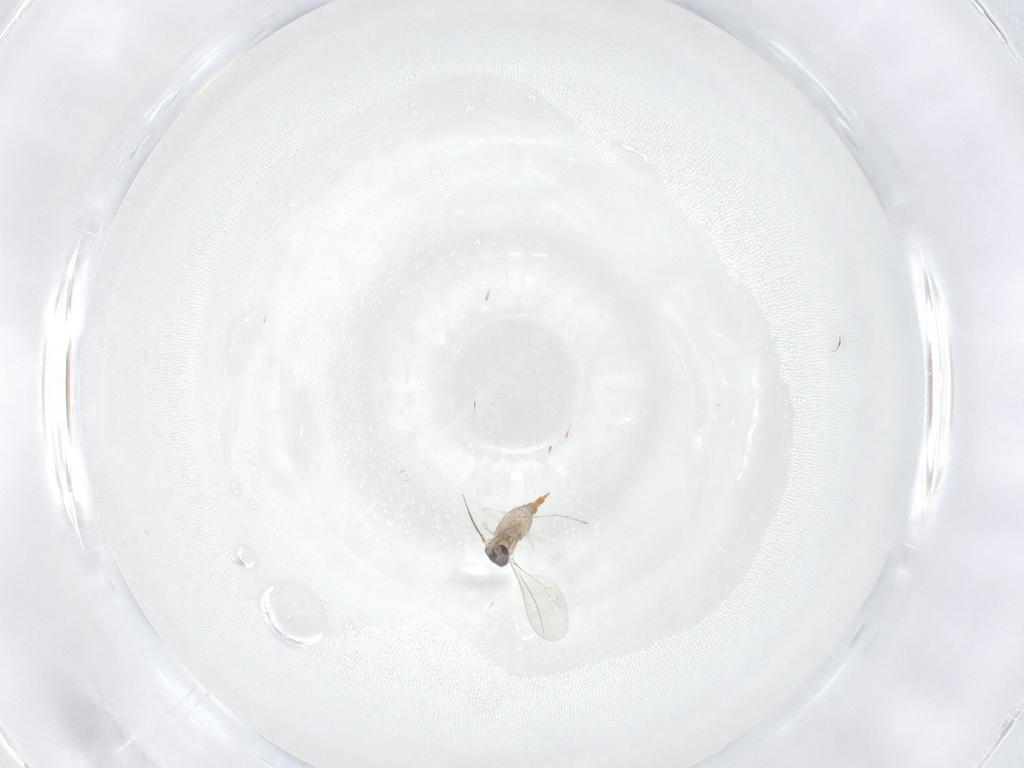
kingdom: Animalia
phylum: Arthropoda
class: Insecta
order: Diptera
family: Cecidomyiidae
